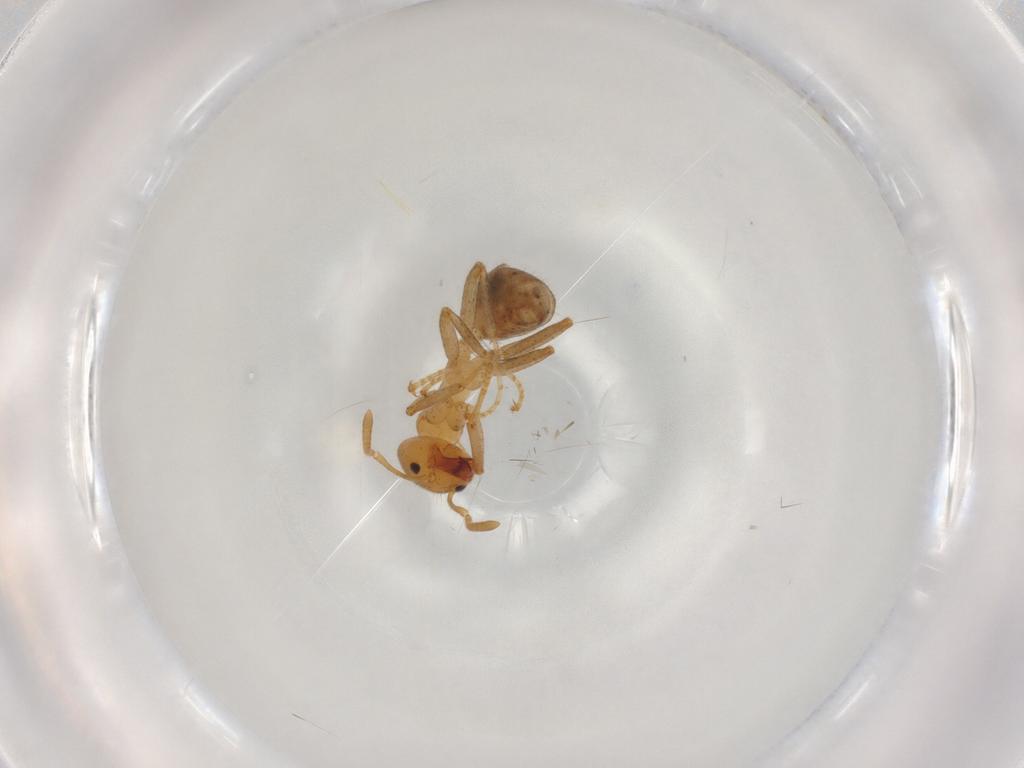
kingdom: Animalia
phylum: Arthropoda
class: Insecta
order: Hymenoptera
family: Formicidae
